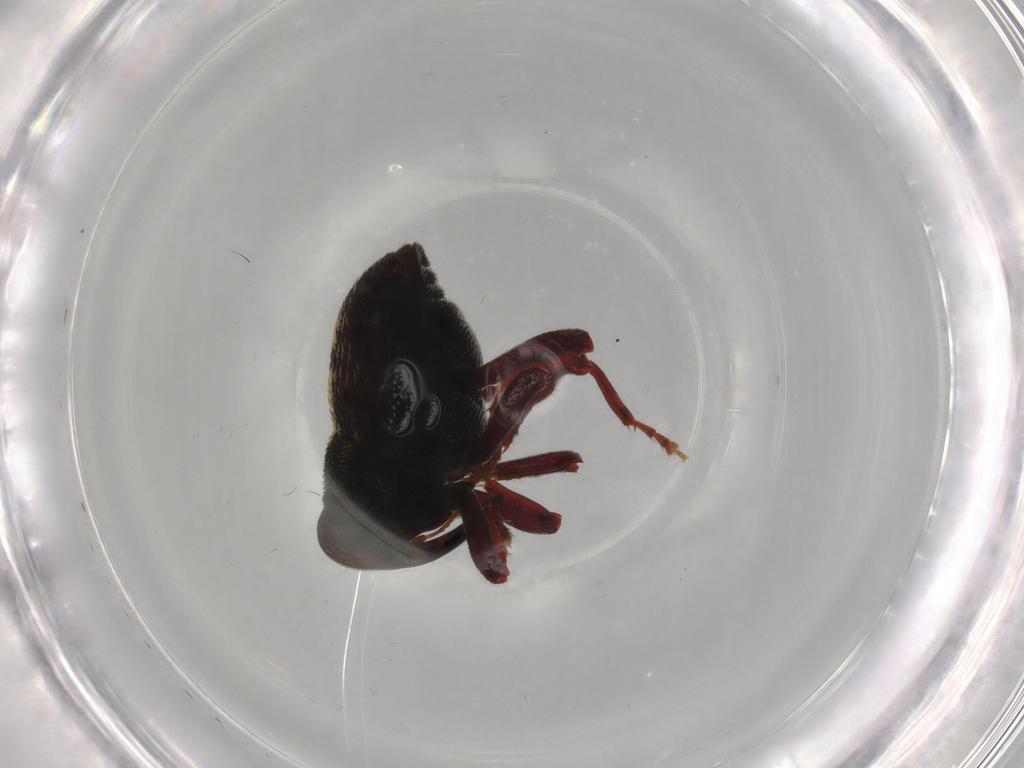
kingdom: Animalia
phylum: Arthropoda
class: Insecta
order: Coleoptera
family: Curculionidae
